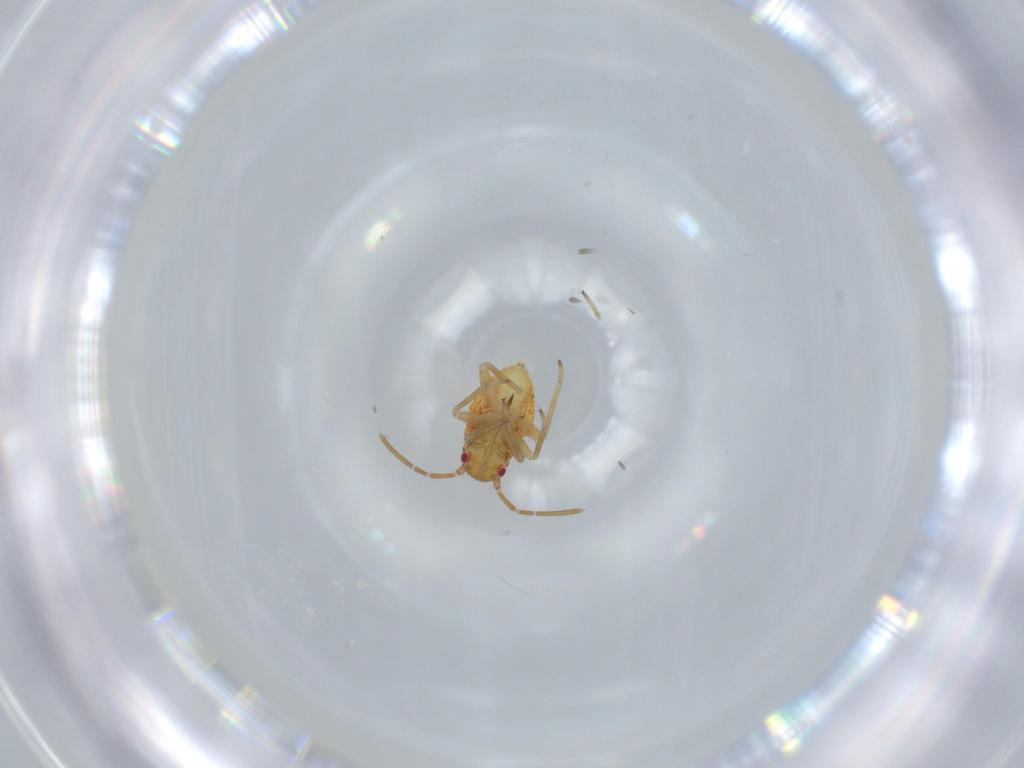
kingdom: Animalia
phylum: Arthropoda
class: Insecta
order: Hemiptera
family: Miridae
